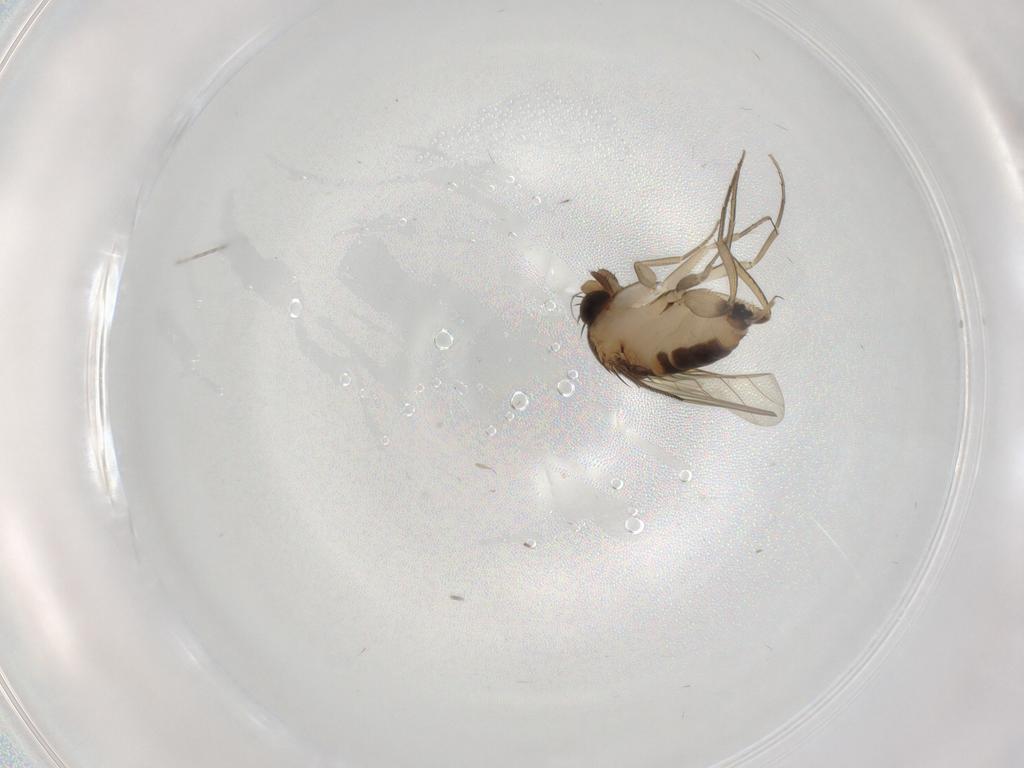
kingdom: Animalia
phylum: Arthropoda
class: Insecta
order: Diptera
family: Phoridae
